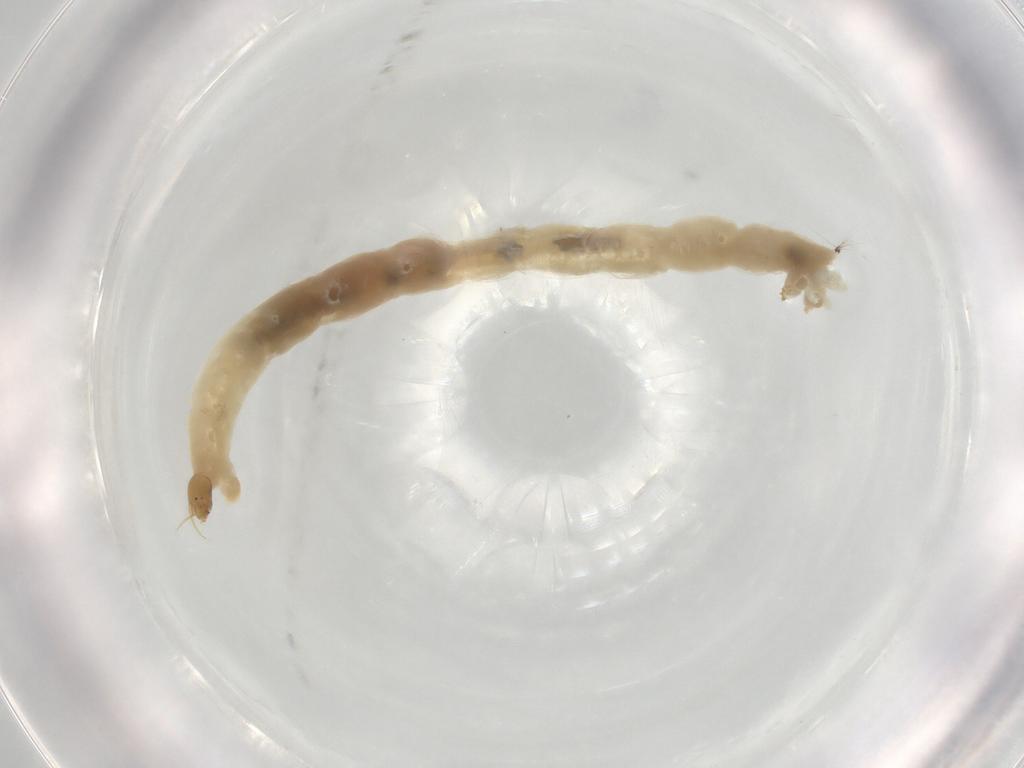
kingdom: Animalia
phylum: Arthropoda
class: Insecta
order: Diptera
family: Chironomidae
